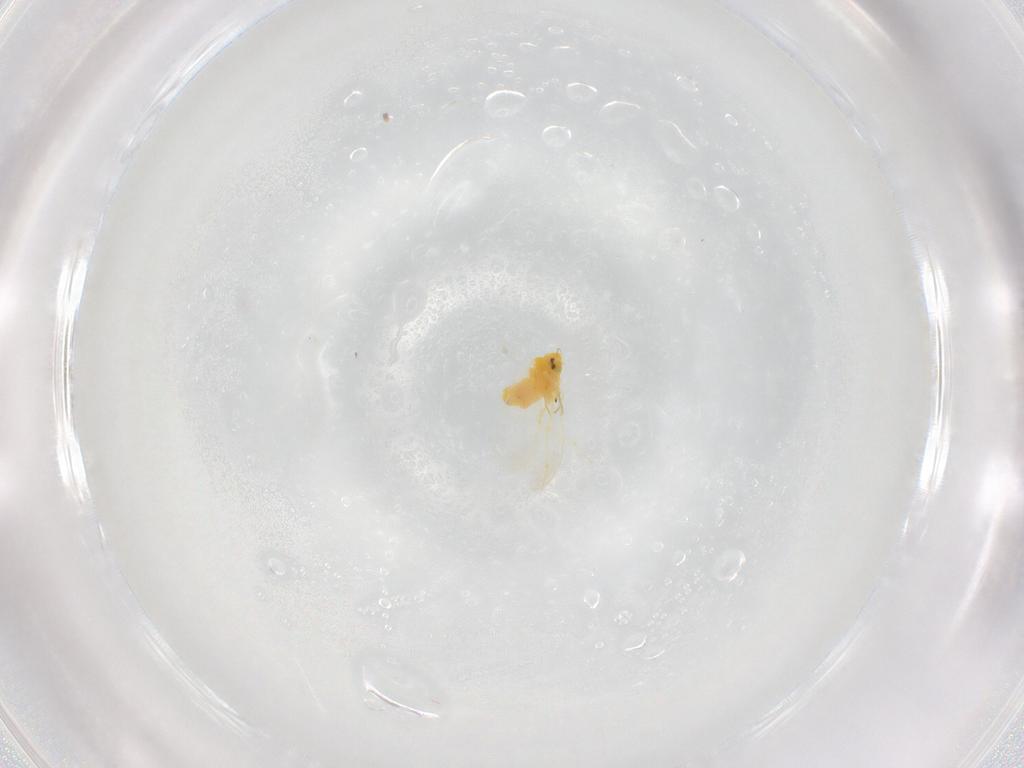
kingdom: Animalia
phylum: Arthropoda
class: Insecta
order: Hemiptera
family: Aleyrodidae
